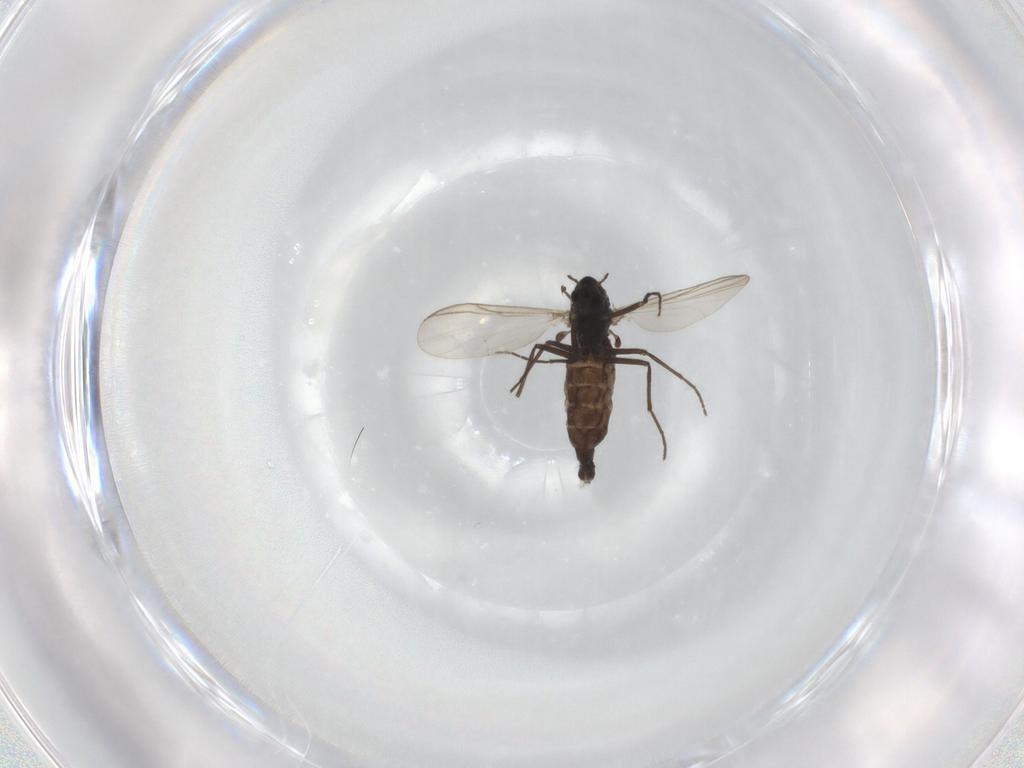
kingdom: Animalia
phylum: Arthropoda
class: Insecta
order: Diptera
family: Chironomidae
